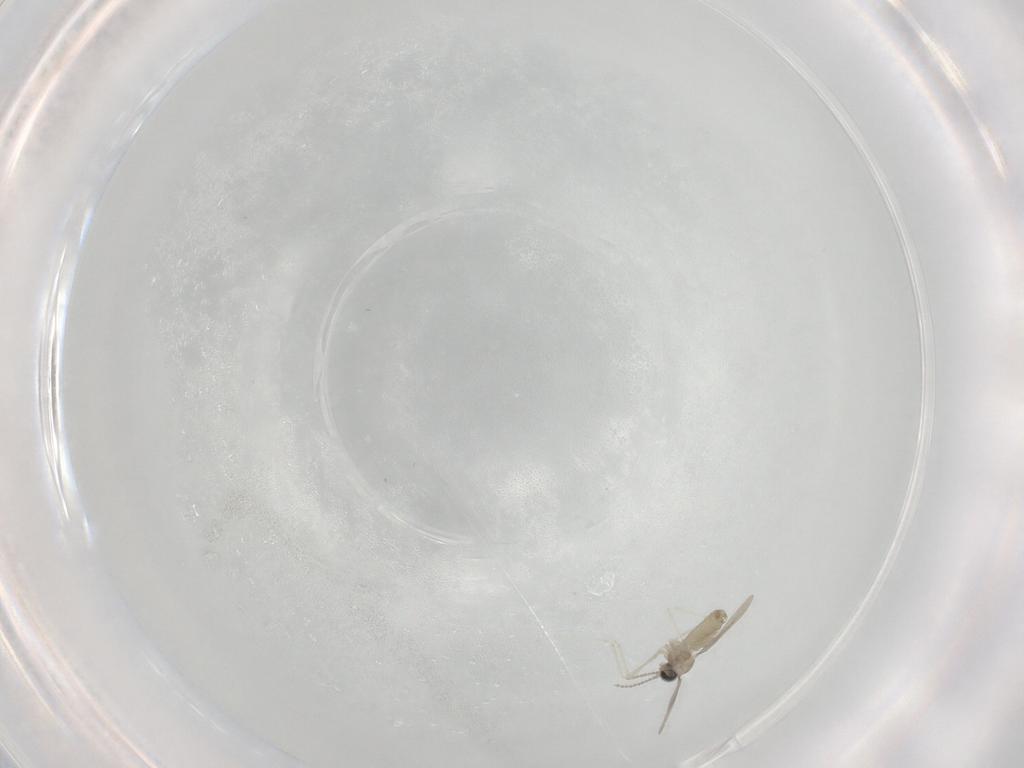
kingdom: Animalia
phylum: Arthropoda
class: Insecta
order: Diptera
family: Cecidomyiidae
